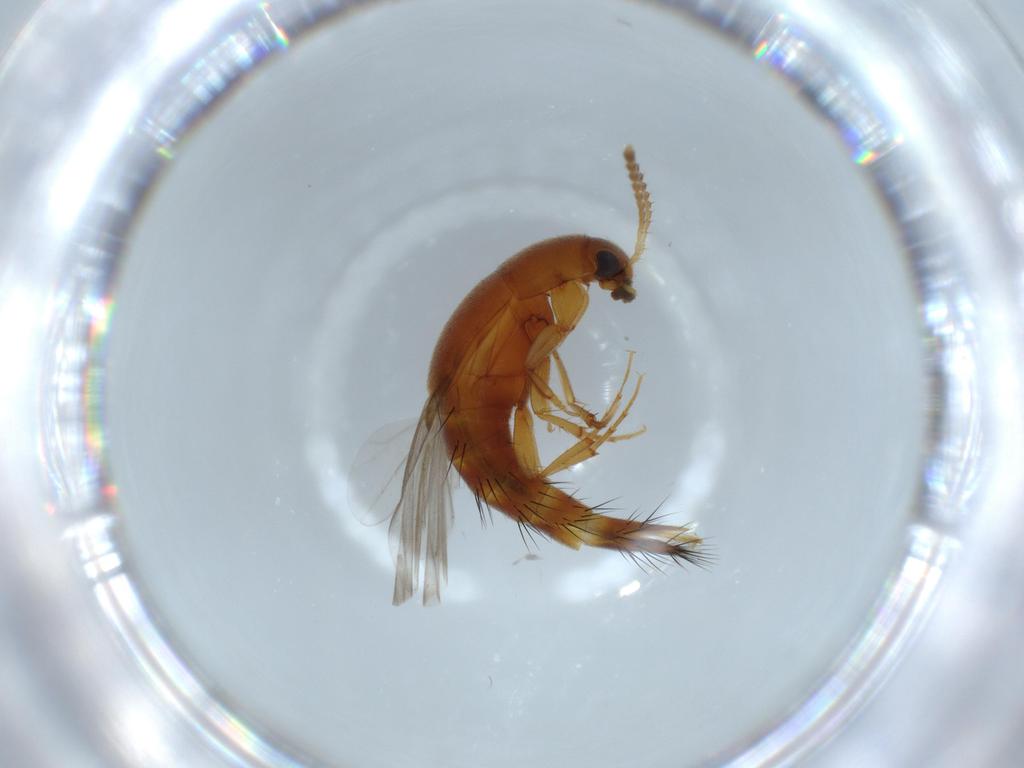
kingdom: Animalia
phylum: Arthropoda
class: Insecta
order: Coleoptera
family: Staphylinidae
